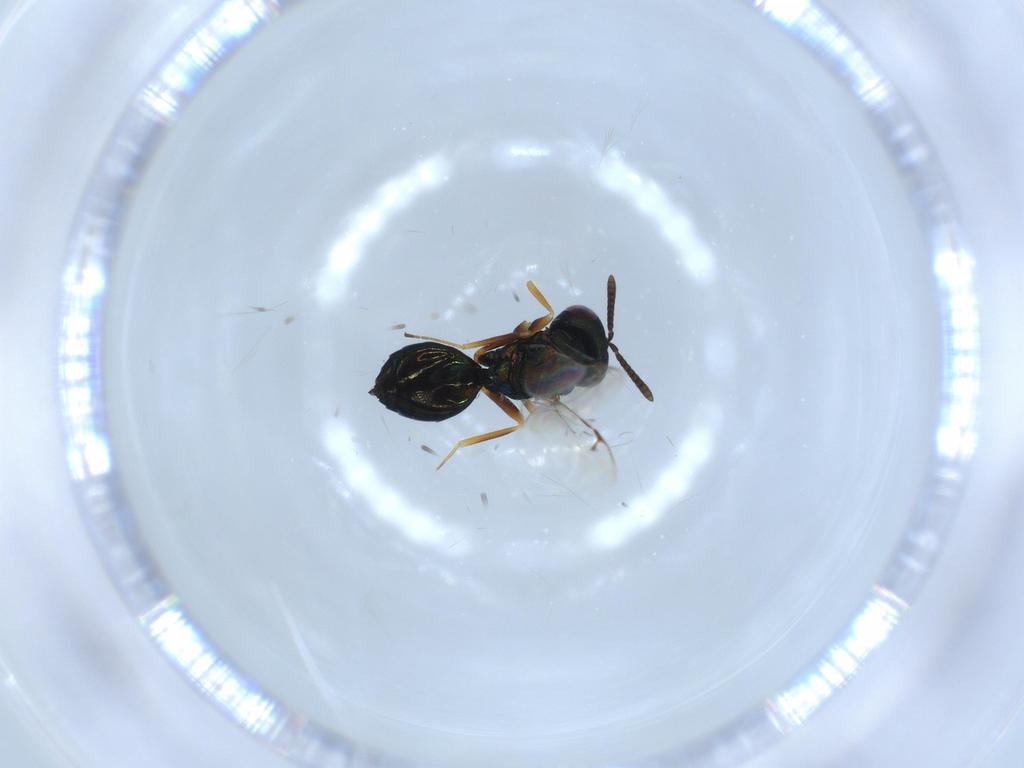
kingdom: Animalia
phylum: Arthropoda
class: Insecta
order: Hymenoptera
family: Pteromalidae
